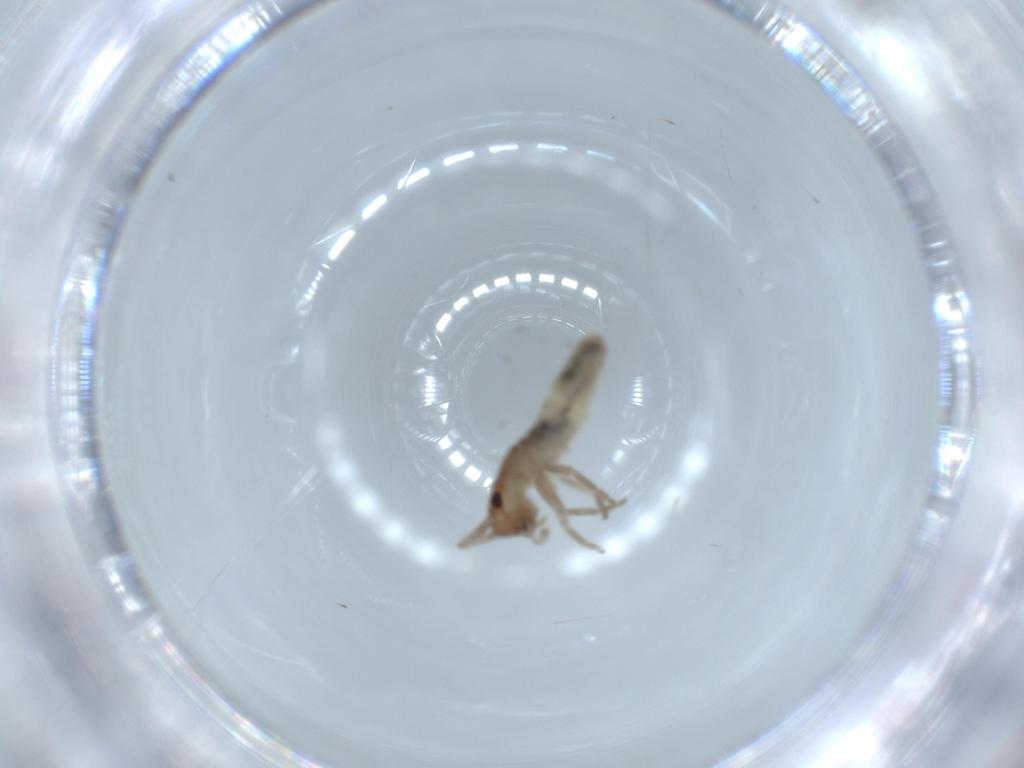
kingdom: Animalia
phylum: Arthropoda
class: Insecta
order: Orthoptera
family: Mogoplistidae
